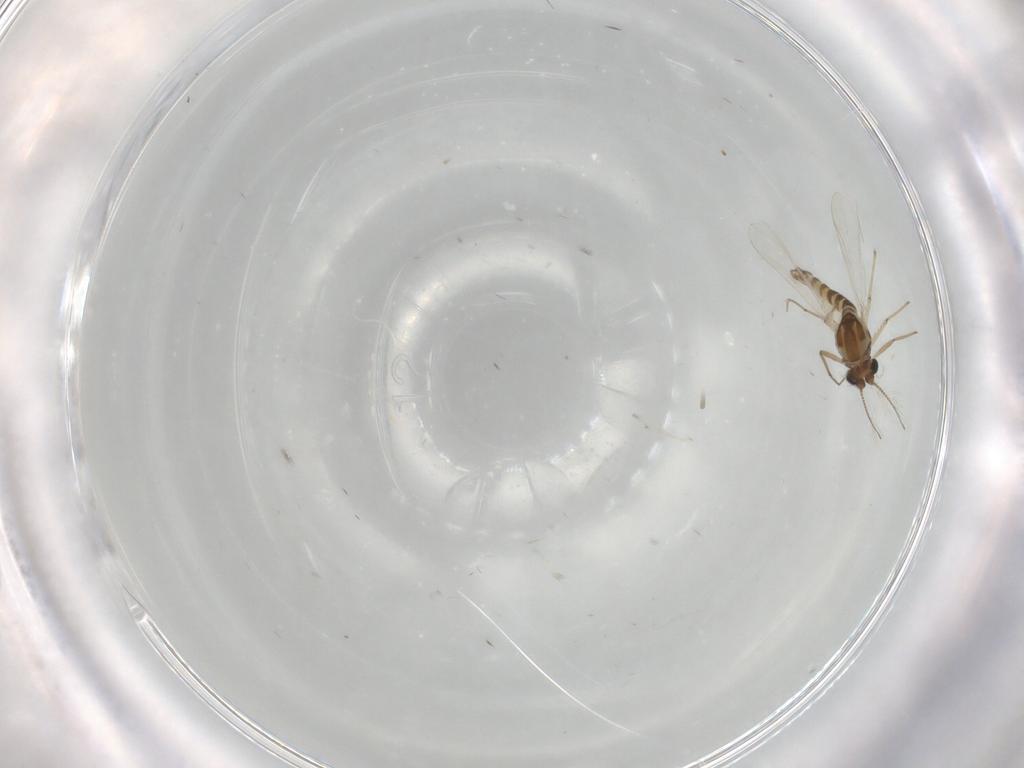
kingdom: Animalia
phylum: Arthropoda
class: Insecta
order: Diptera
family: Chironomidae
